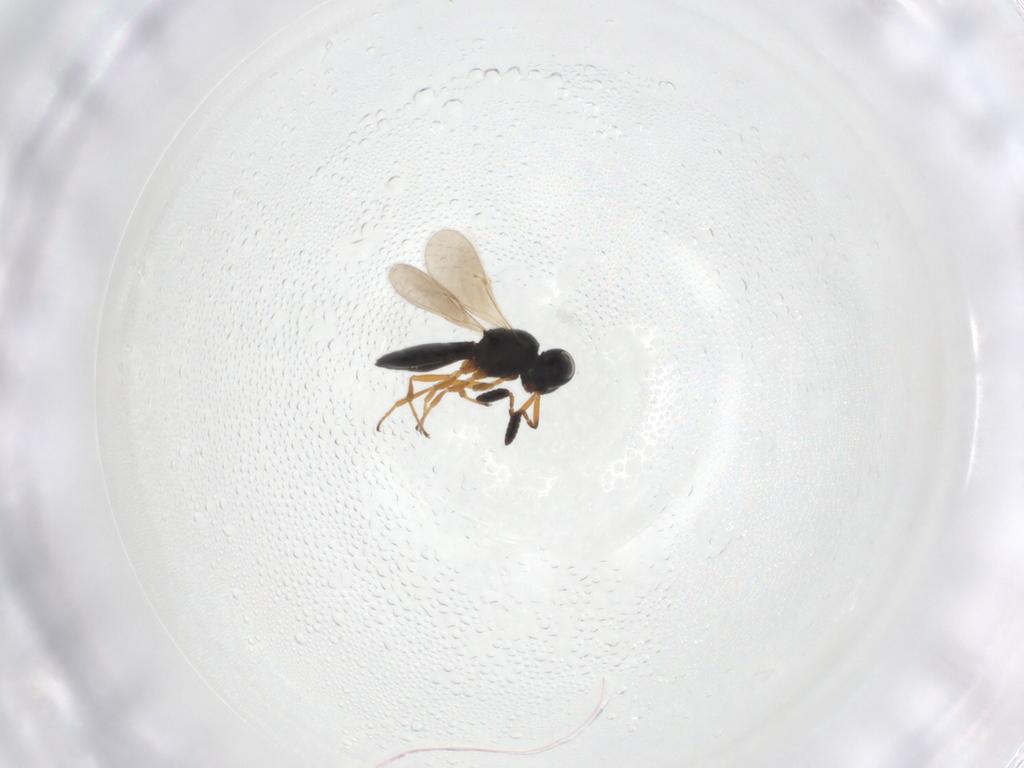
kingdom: Animalia
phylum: Arthropoda
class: Insecta
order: Hymenoptera
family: Scelionidae
